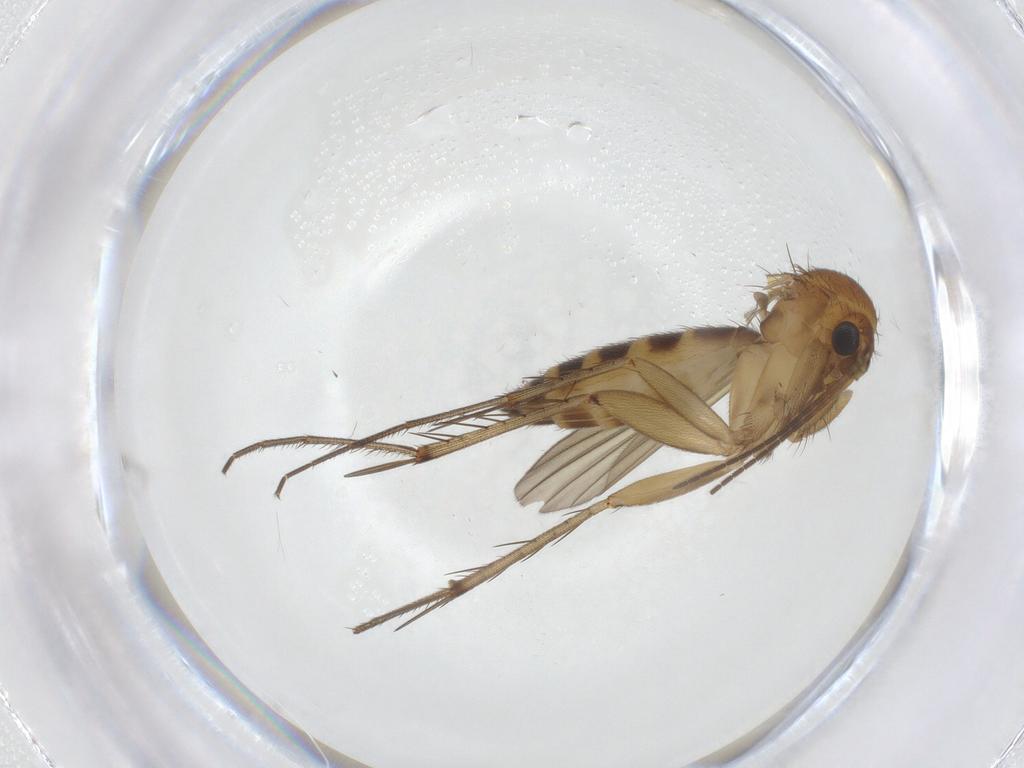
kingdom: Animalia
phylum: Arthropoda
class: Insecta
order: Diptera
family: Mycetophilidae
